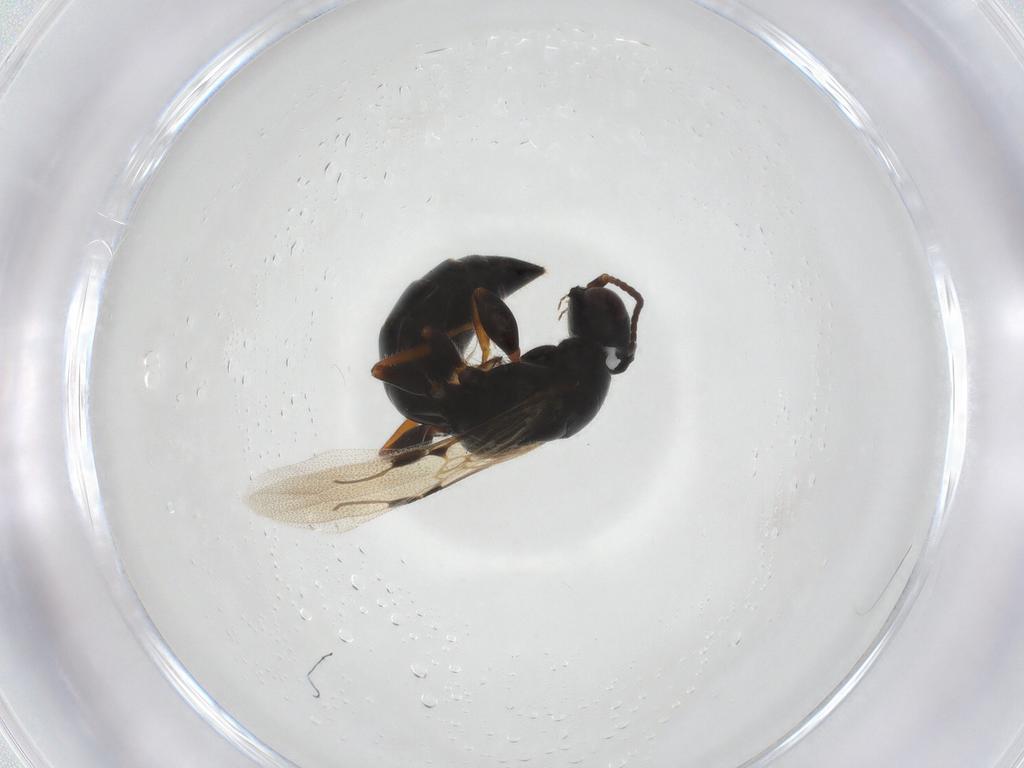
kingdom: Animalia
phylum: Arthropoda
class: Insecta
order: Hymenoptera
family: Bethylidae
